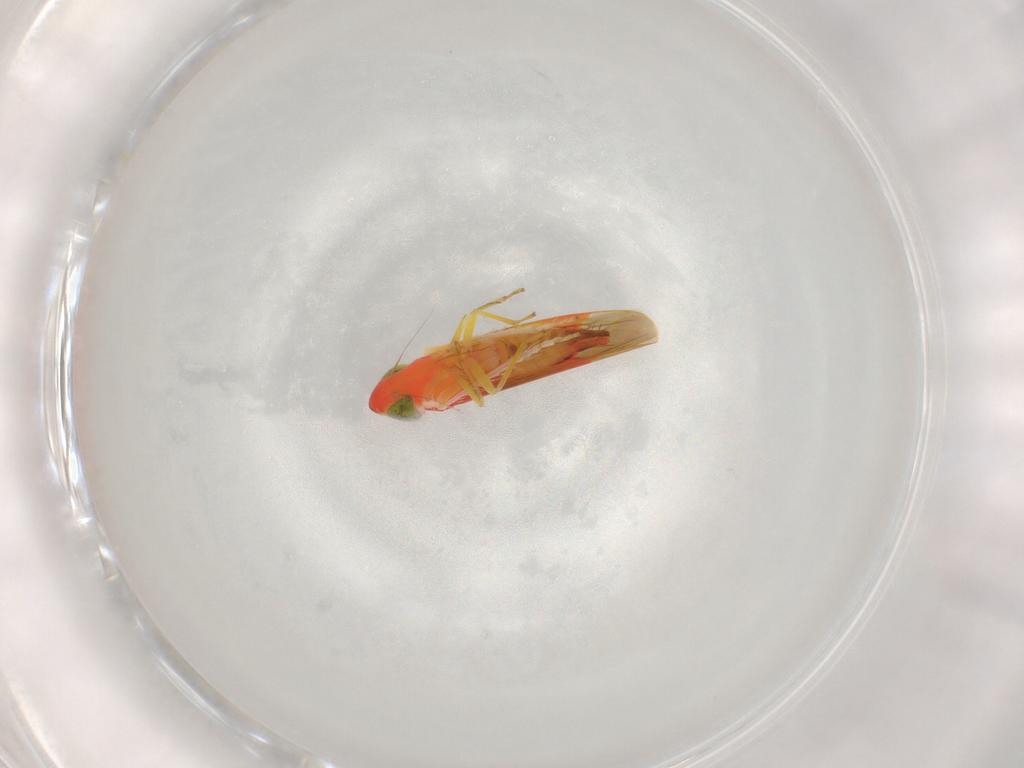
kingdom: Animalia
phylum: Arthropoda
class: Insecta
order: Hemiptera
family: Cicadellidae
